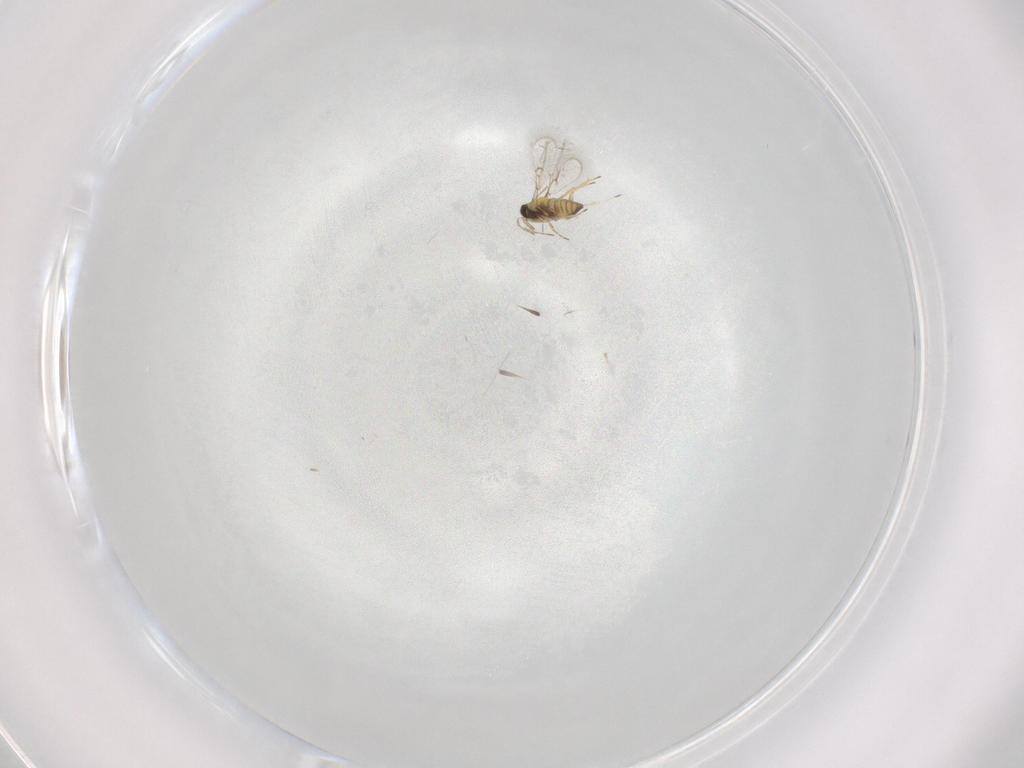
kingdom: Animalia
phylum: Arthropoda
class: Insecta
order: Hymenoptera
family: Trichogrammatidae
